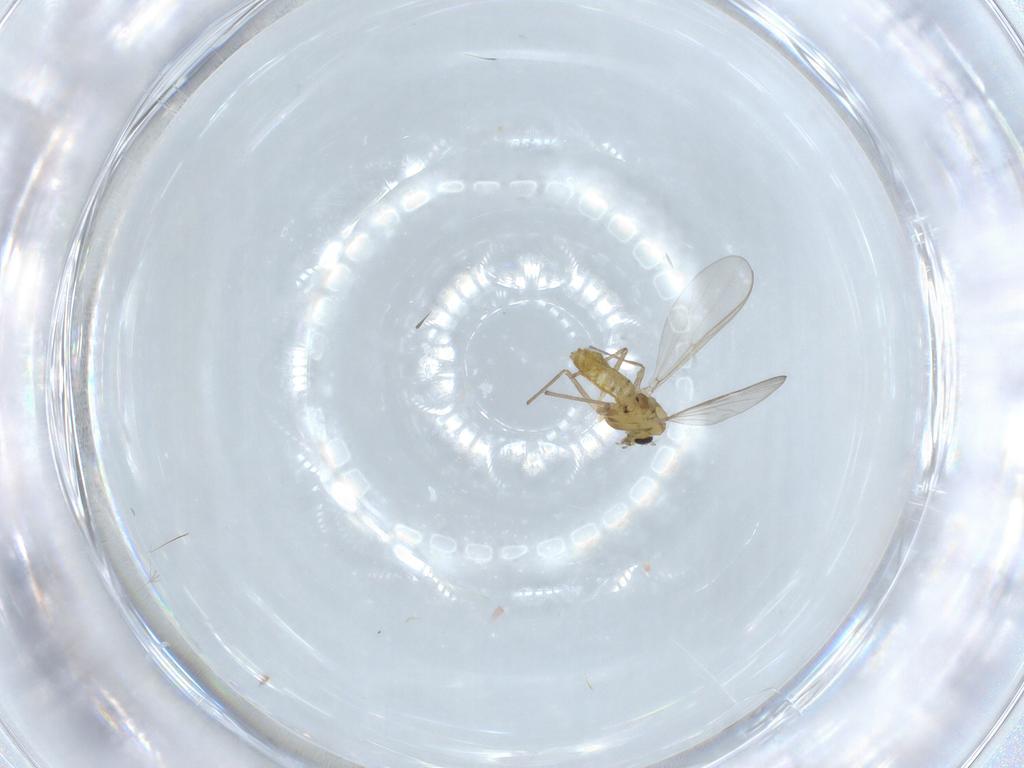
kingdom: Animalia
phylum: Arthropoda
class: Insecta
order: Diptera
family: Chironomidae
